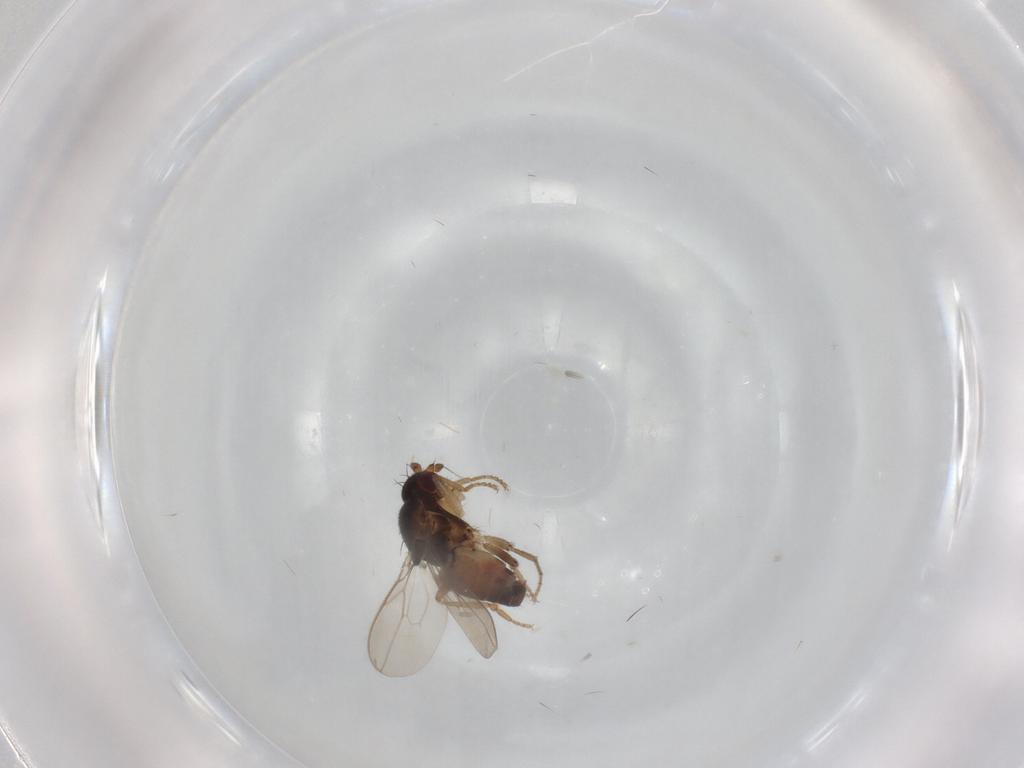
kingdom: Animalia
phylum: Arthropoda
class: Insecta
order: Diptera
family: Sphaeroceridae
